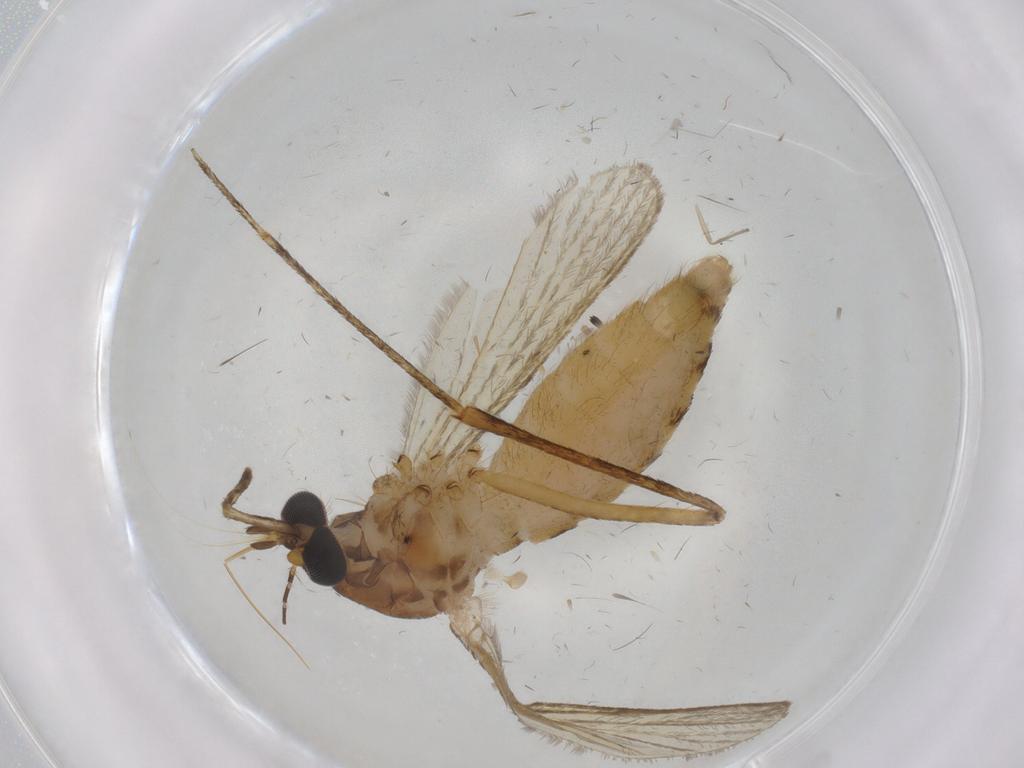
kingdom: Animalia
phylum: Arthropoda
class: Insecta
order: Diptera
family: Culicidae
